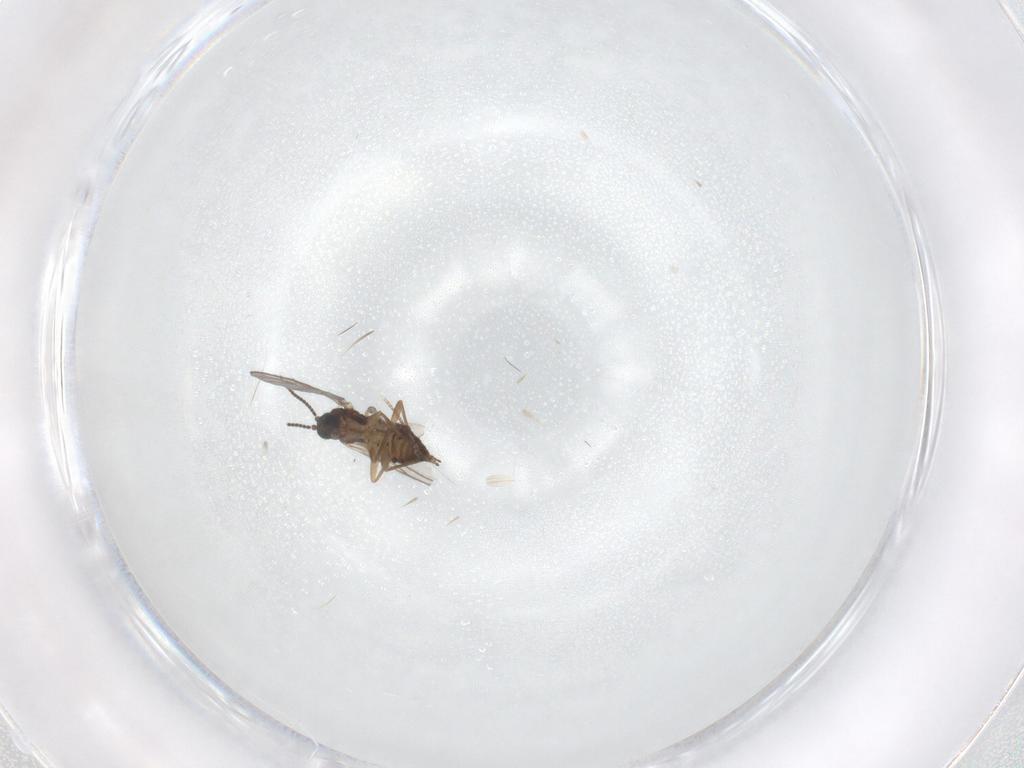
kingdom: Animalia
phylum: Arthropoda
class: Insecta
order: Diptera
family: Sciaridae
